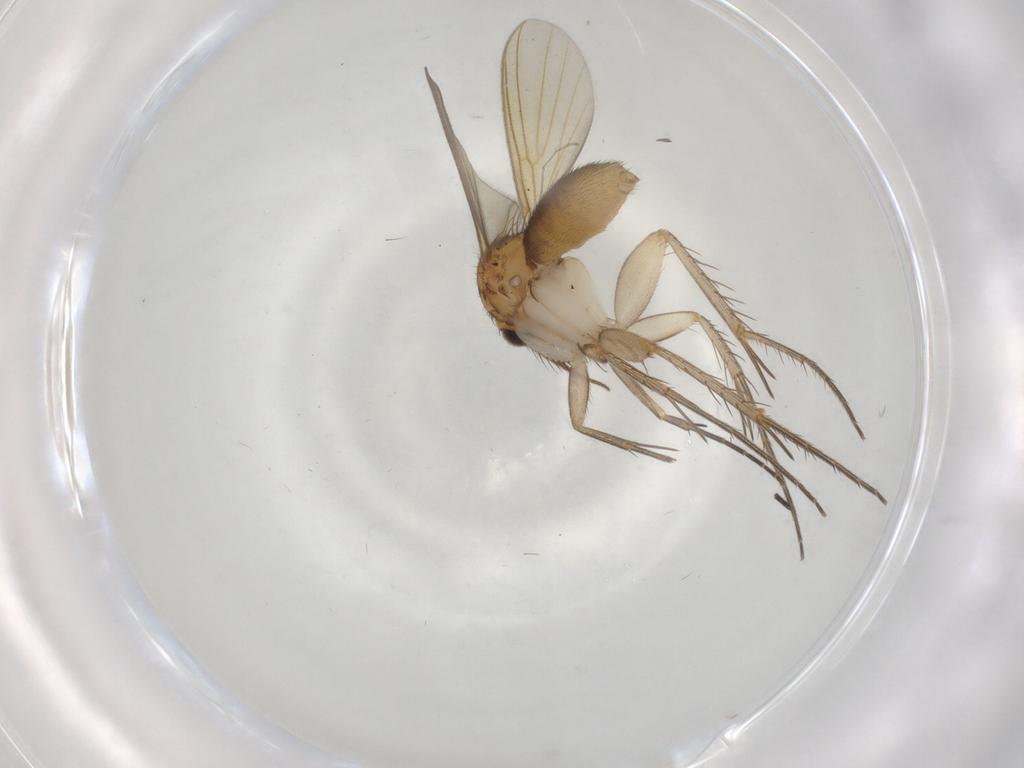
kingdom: Animalia
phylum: Arthropoda
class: Insecta
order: Diptera
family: Mycetophilidae
